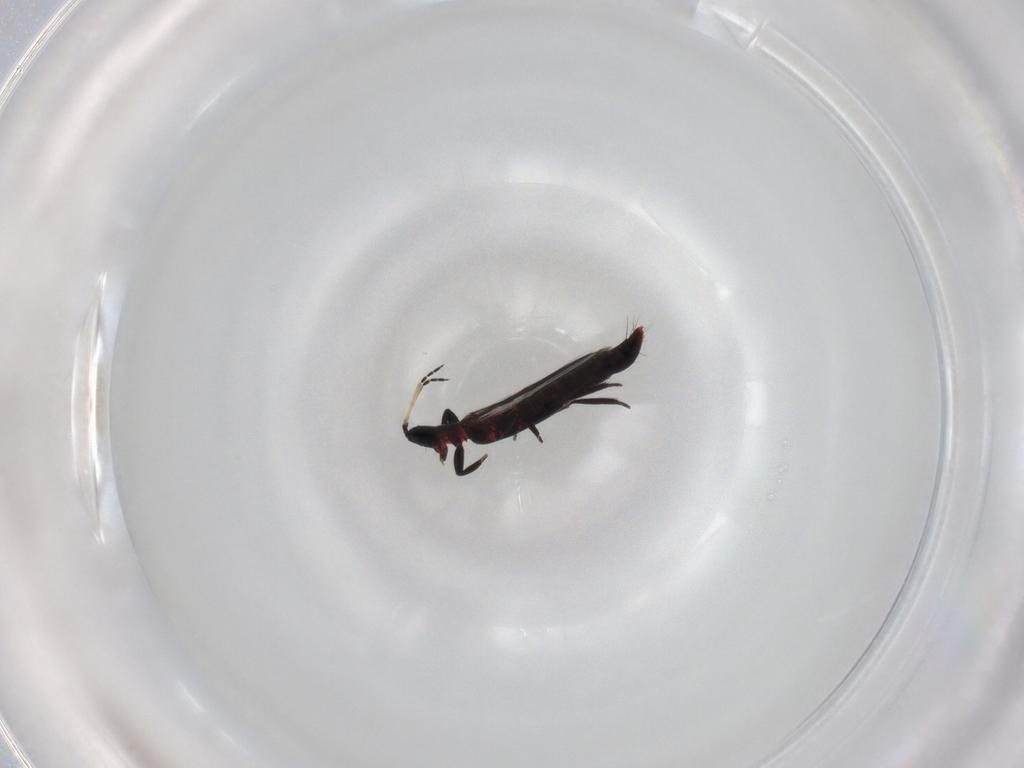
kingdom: Animalia
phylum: Arthropoda
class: Insecta
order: Thysanoptera
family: Aeolothripidae
